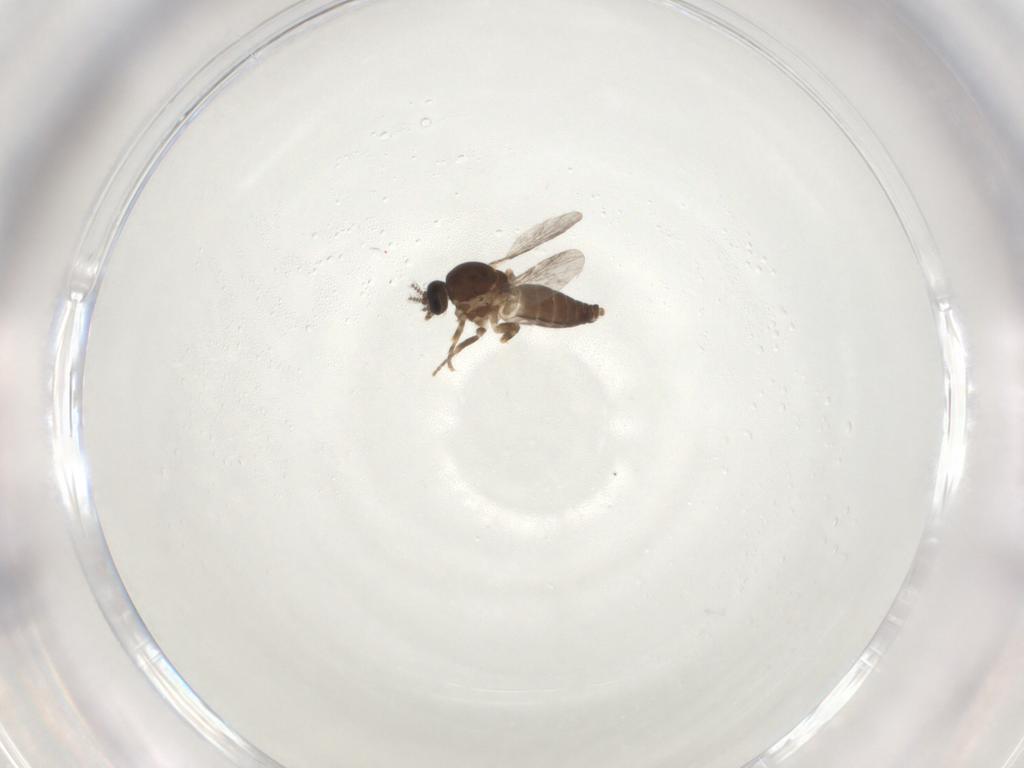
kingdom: Animalia
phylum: Arthropoda
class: Insecta
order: Diptera
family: Ceratopogonidae
